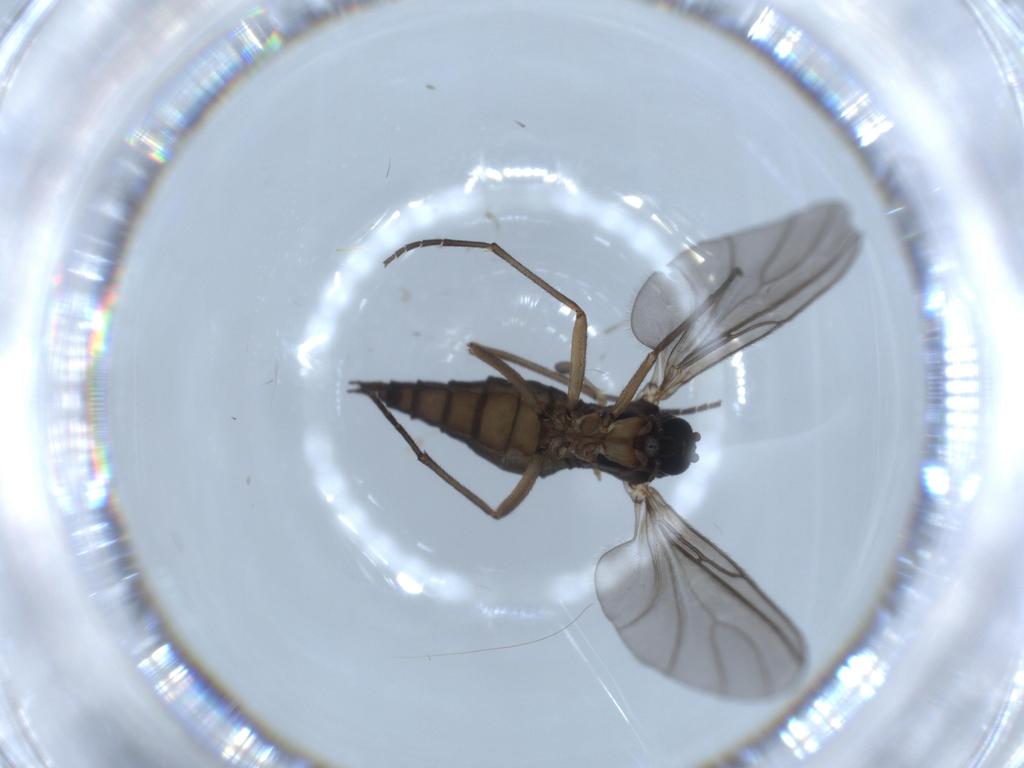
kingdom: Animalia
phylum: Arthropoda
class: Insecta
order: Diptera
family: Sciaridae
